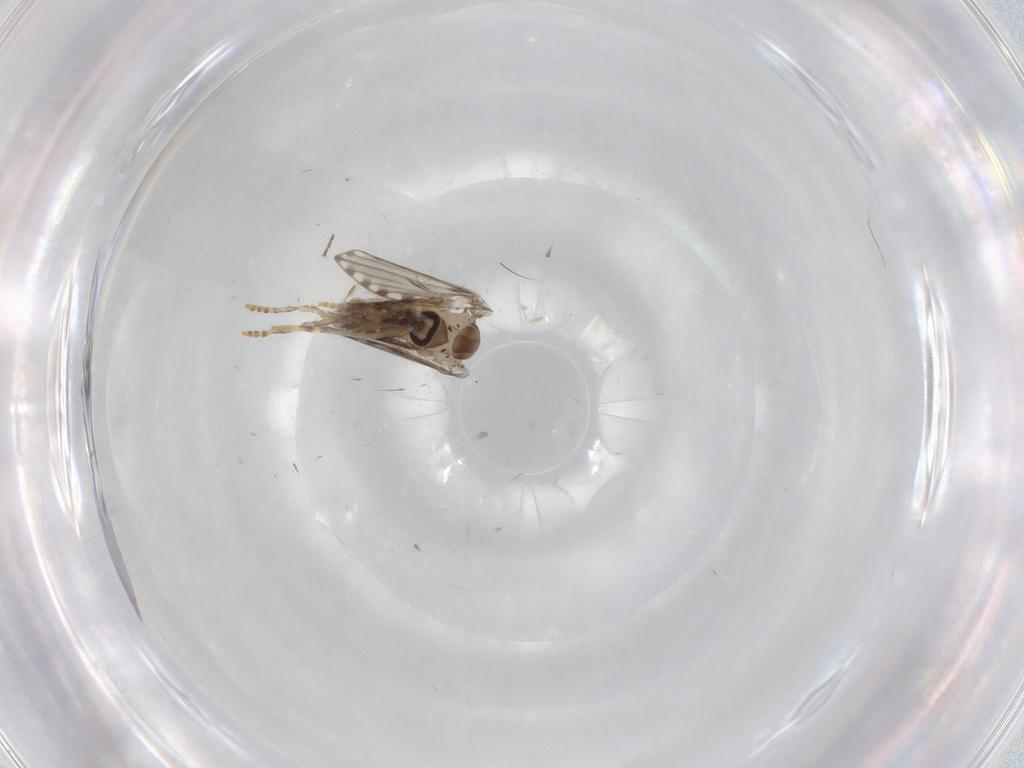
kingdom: Animalia
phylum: Arthropoda
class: Insecta
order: Diptera
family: Psychodidae
